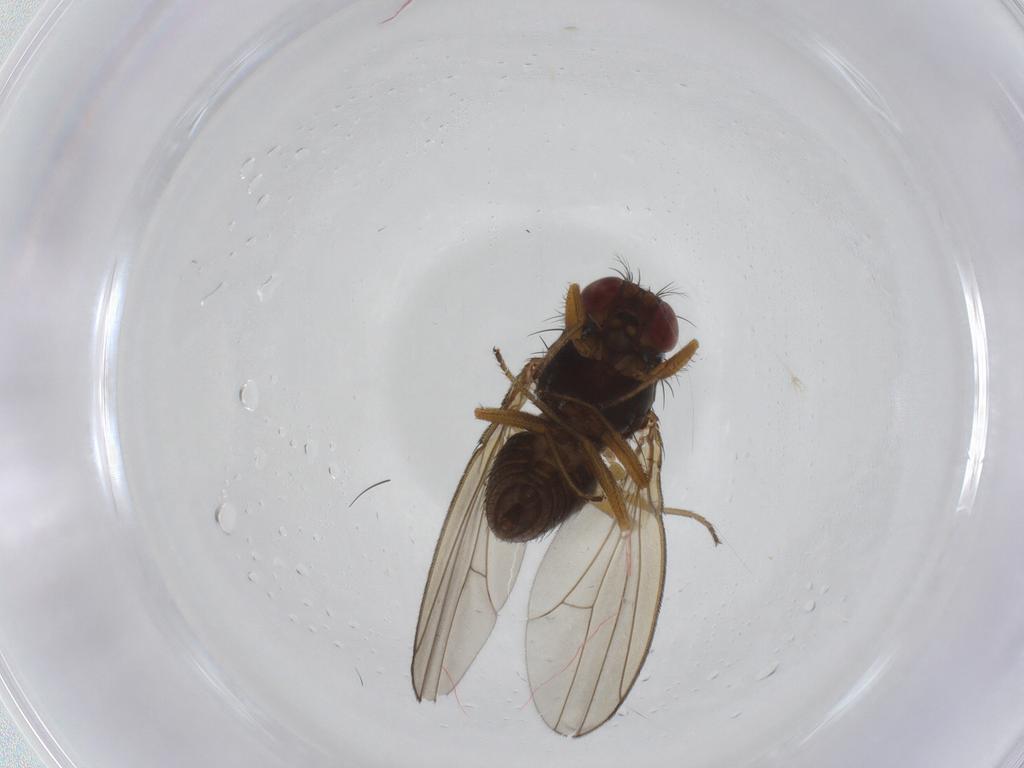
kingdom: Animalia
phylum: Arthropoda
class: Insecta
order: Diptera
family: Drosophilidae
